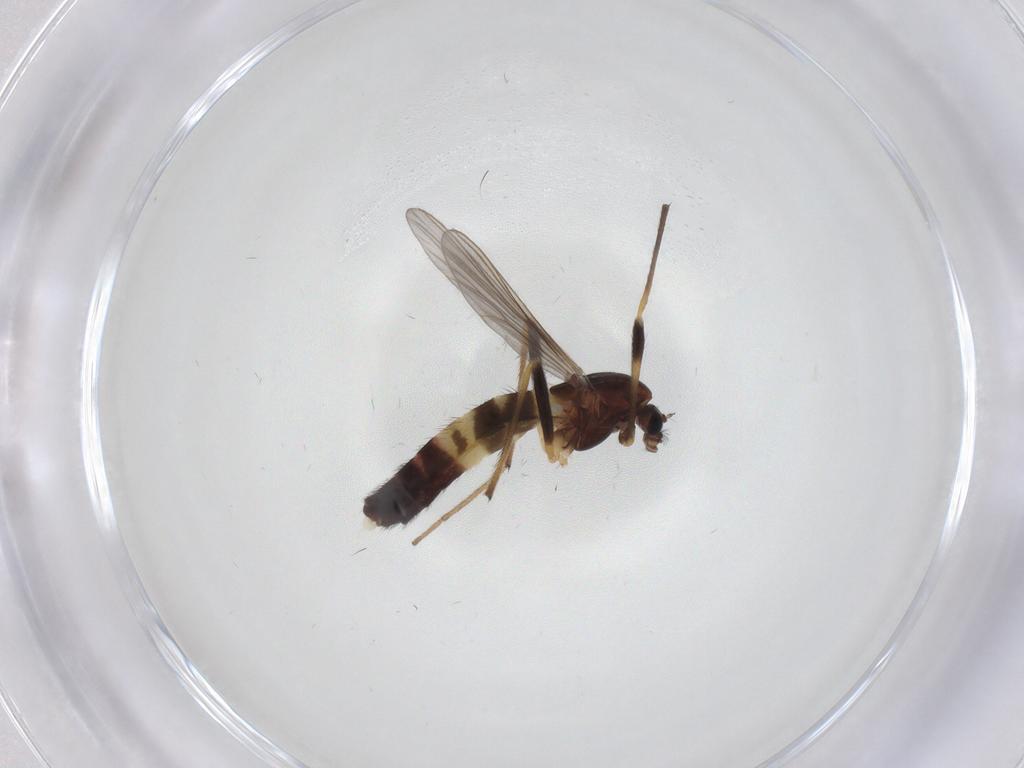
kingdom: Animalia
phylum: Arthropoda
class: Insecta
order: Diptera
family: Chironomidae
